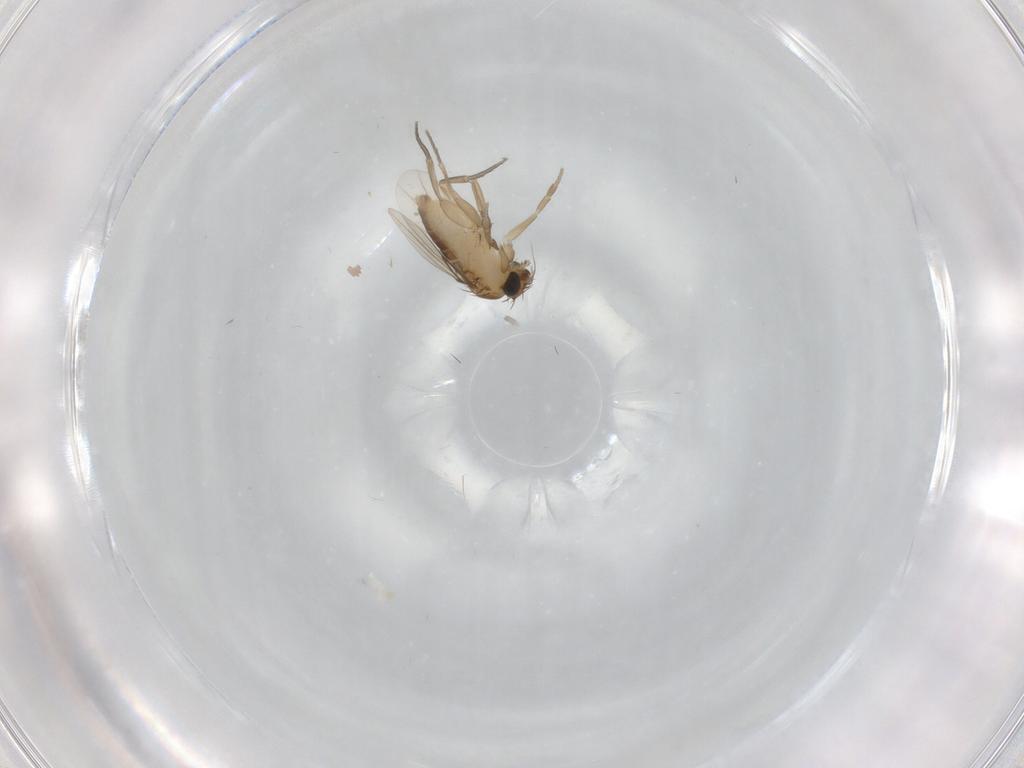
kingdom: Animalia
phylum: Arthropoda
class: Insecta
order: Diptera
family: Phoridae
